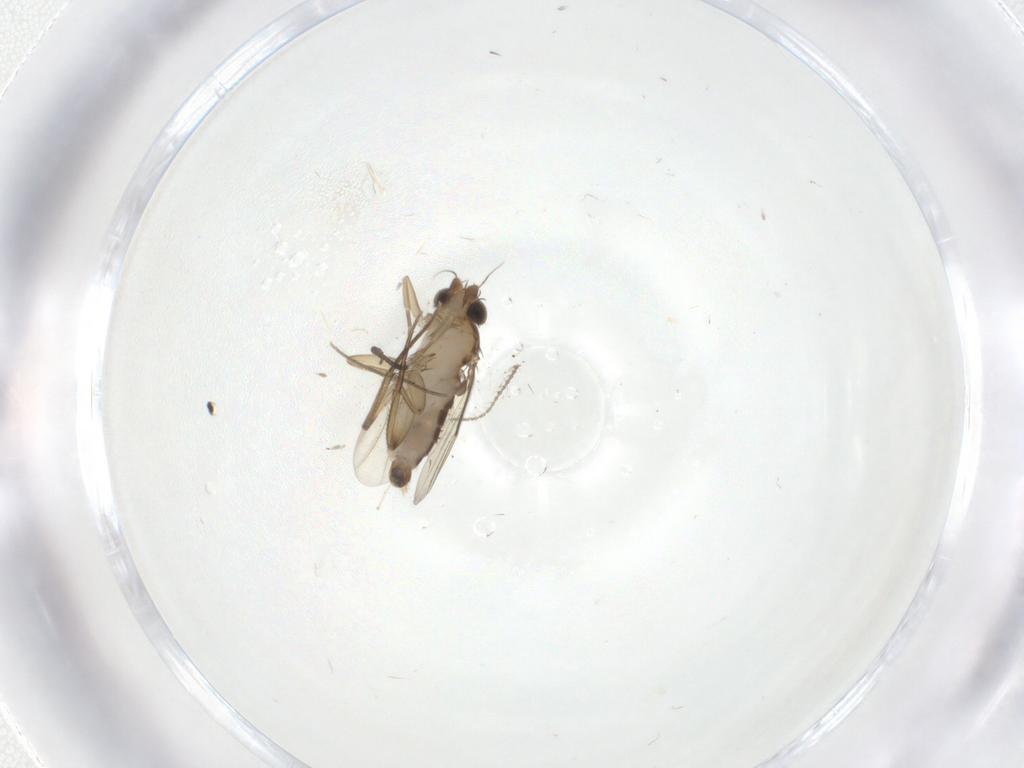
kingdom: Animalia
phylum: Arthropoda
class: Insecta
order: Diptera
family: Phoridae
